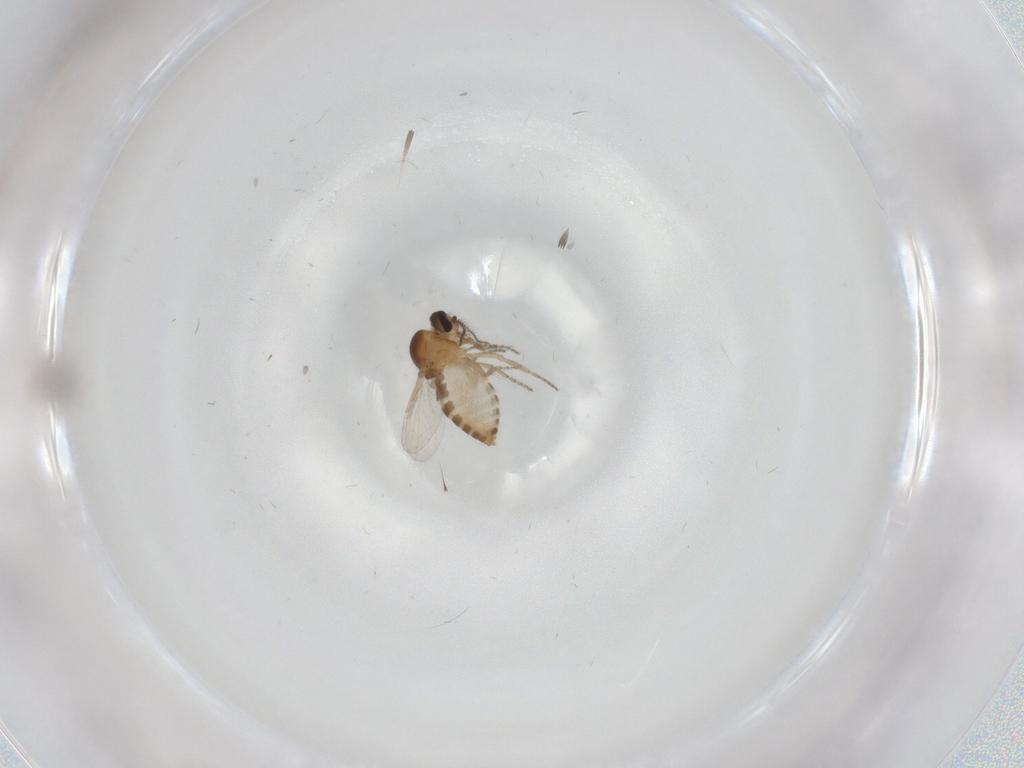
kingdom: Animalia
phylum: Arthropoda
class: Insecta
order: Diptera
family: Ceratopogonidae
